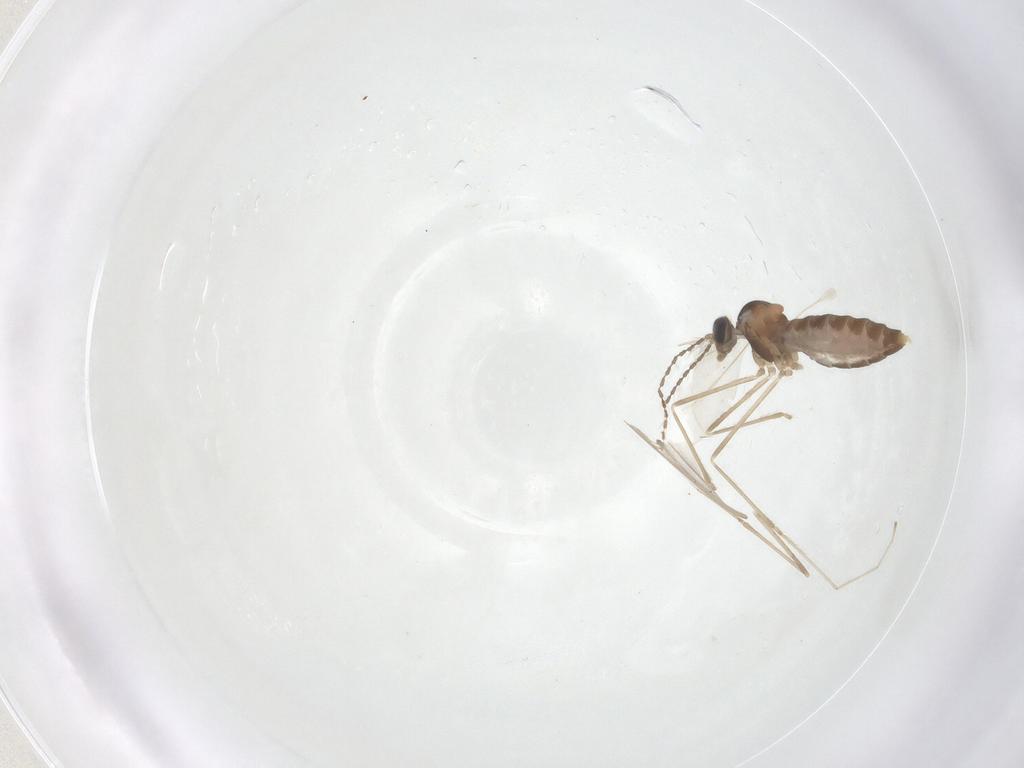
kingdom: Animalia
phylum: Arthropoda
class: Insecta
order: Diptera
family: Cecidomyiidae
